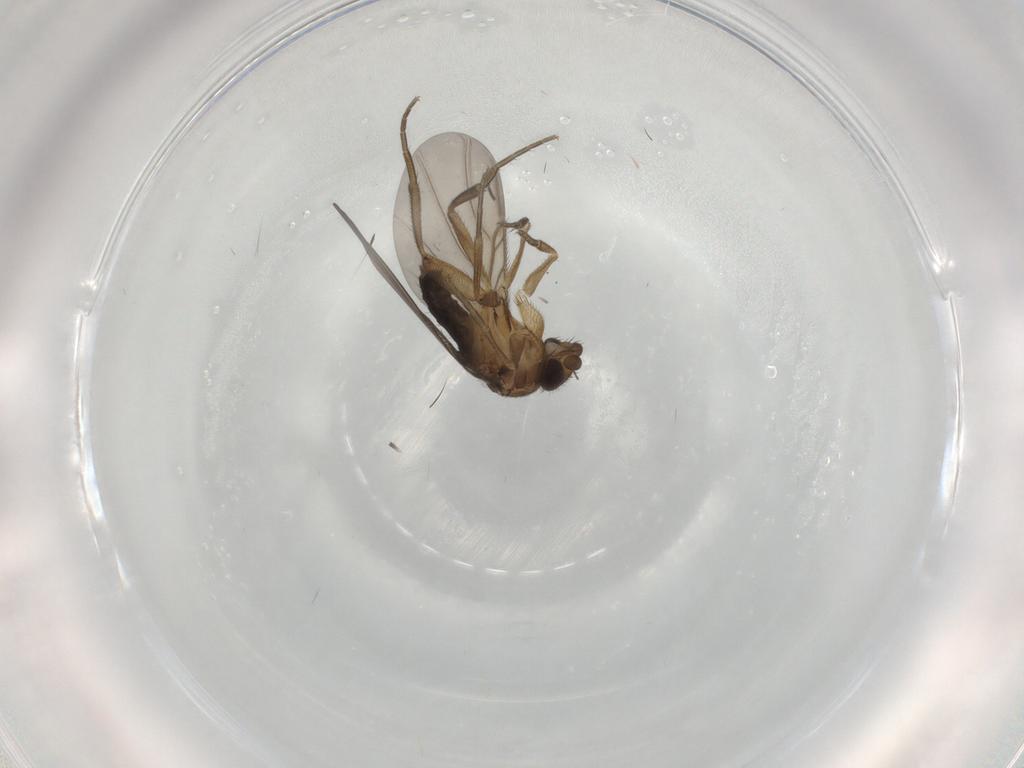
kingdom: Animalia
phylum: Arthropoda
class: Insecta
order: Diptera
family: Phoridae
